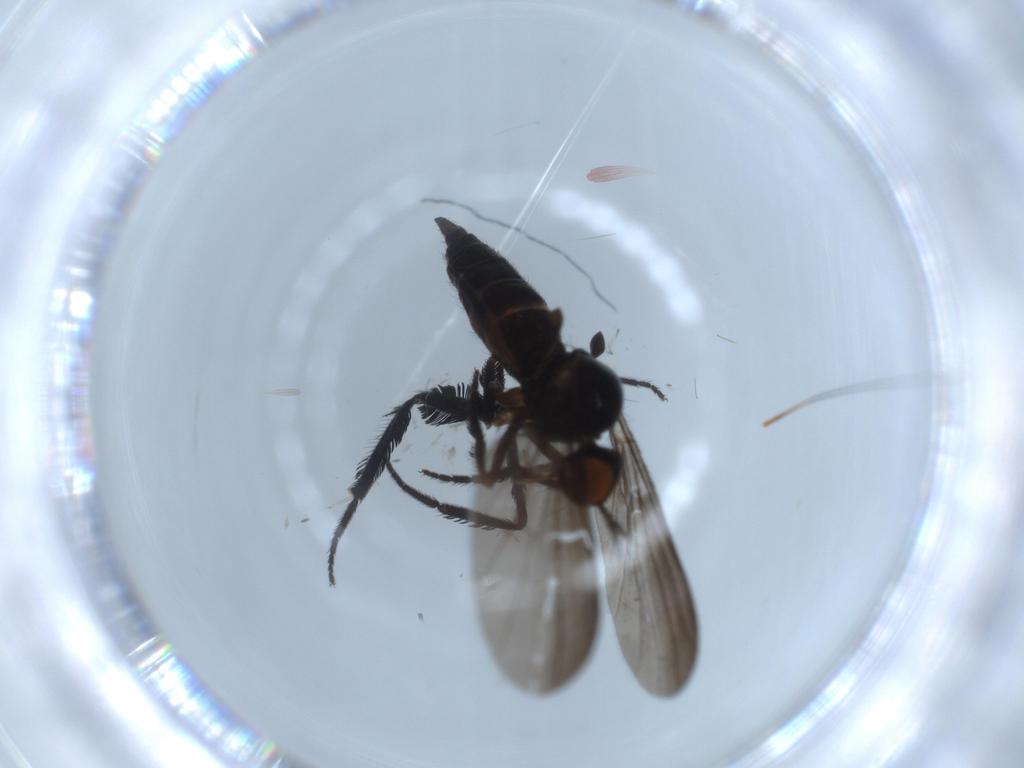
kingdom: Animalia
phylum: Arthropoda
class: Insecta
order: Diptera
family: Empididae
